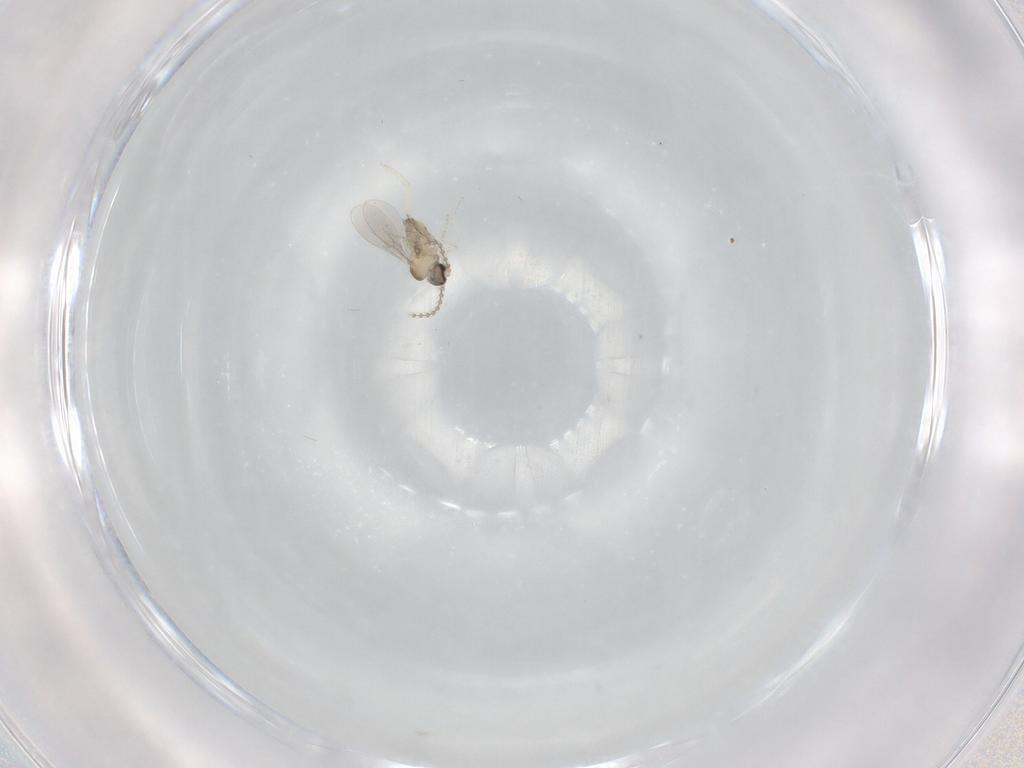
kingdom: Animalia
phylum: Arthropoda
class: Insecta
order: Diptera
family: Cecidomyiidae
